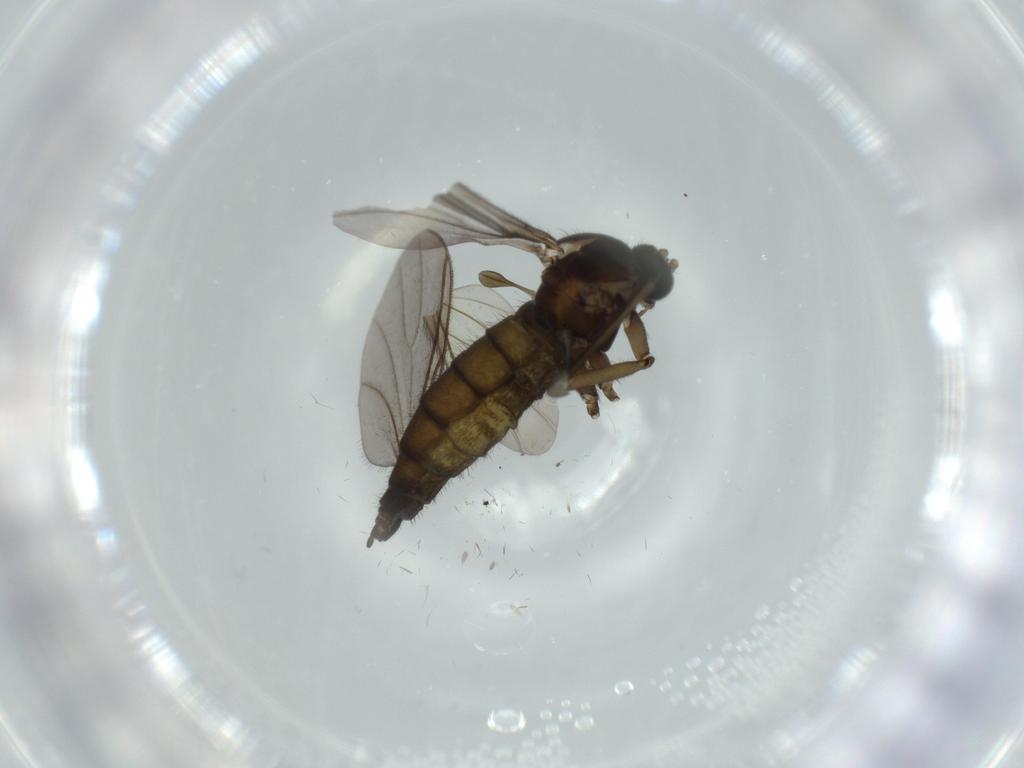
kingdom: Animalia
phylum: Arthropoda
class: Insecta
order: Diptera
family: Sciaridae
